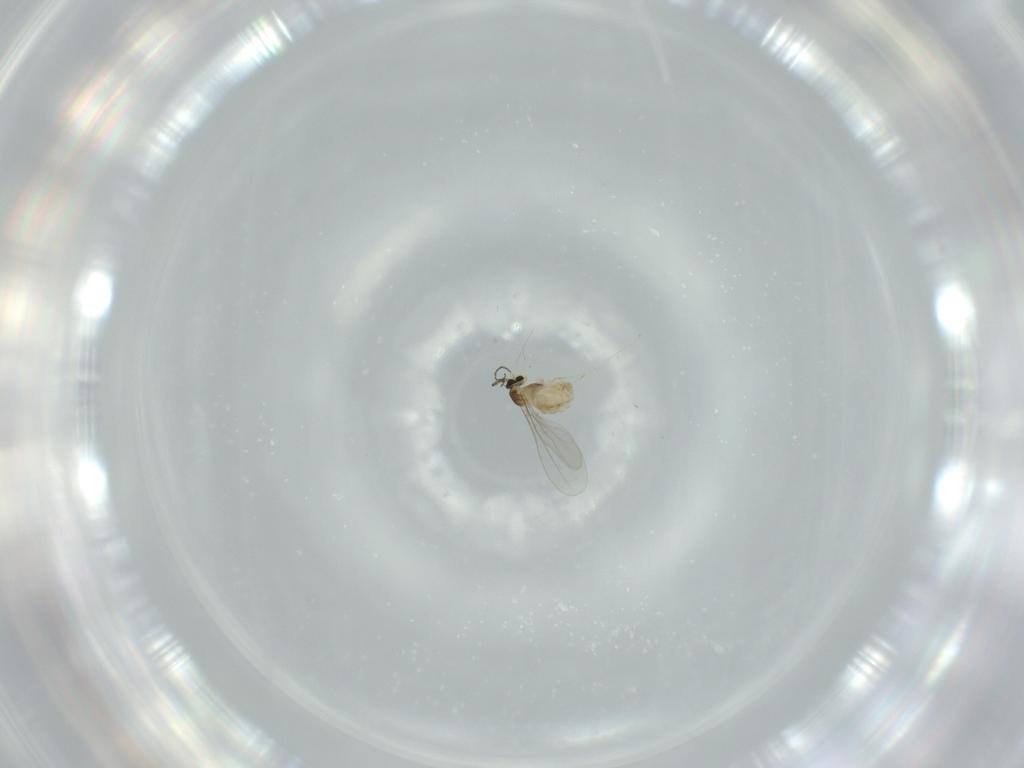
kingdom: Animalia
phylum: Arthropoda
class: Insecta
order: Diptera
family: Cecidomyiidae
